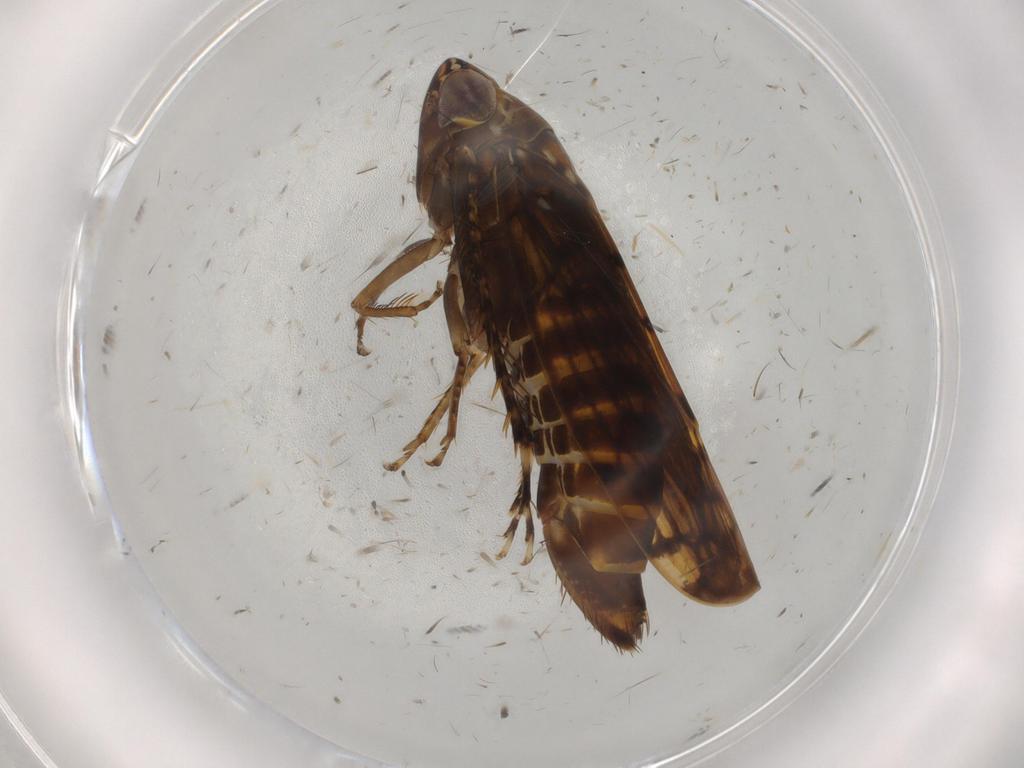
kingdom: Animalia
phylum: Arthropoda
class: Insecta
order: Hemiptera
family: Cicadellidae
